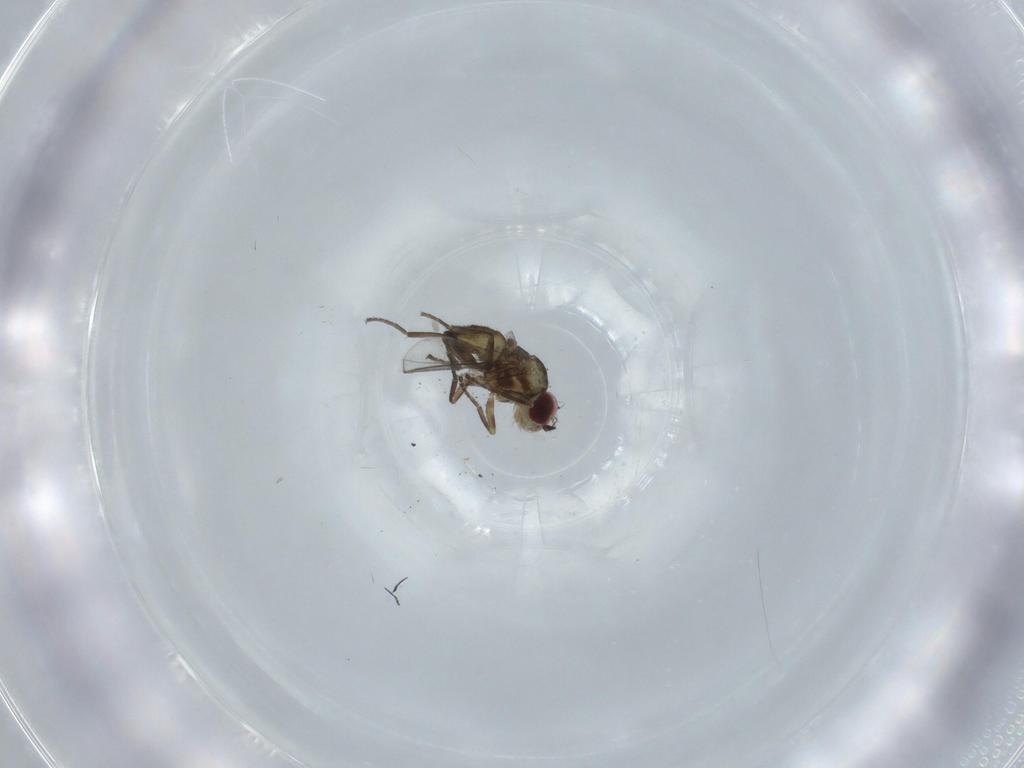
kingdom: Animalia
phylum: Arthropoda
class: Insecta
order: Diptera
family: Agromyzidae
